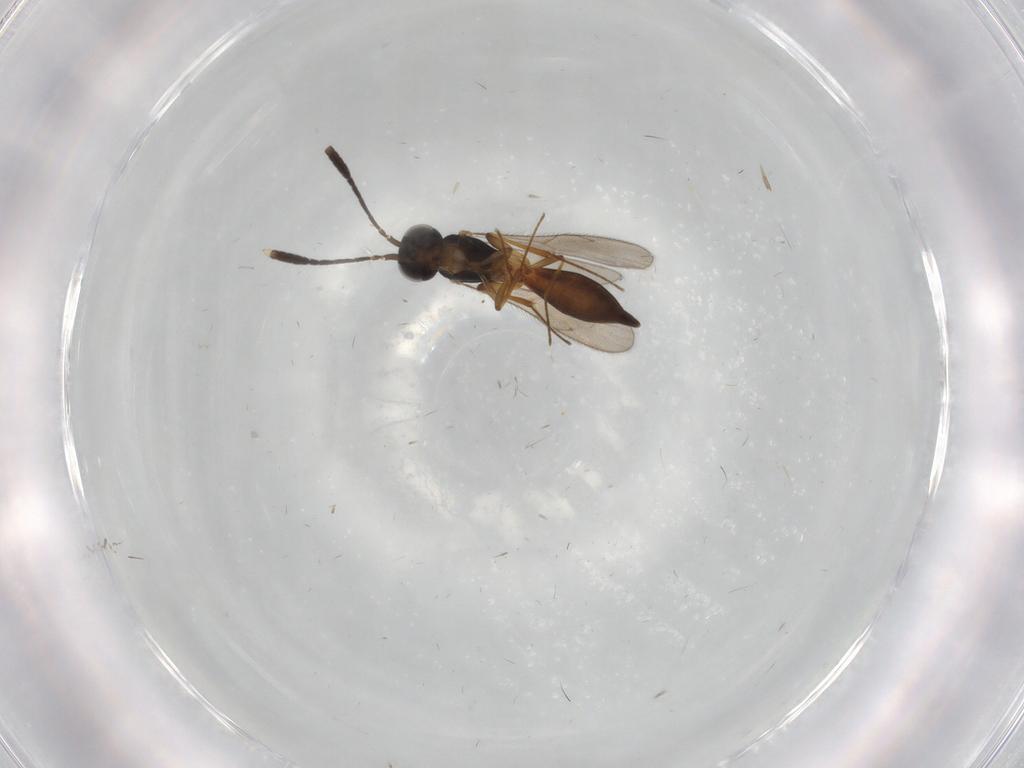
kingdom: Animalia
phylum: Arthropoda
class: Insecta
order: Hymenoptera
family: Scelionidae
